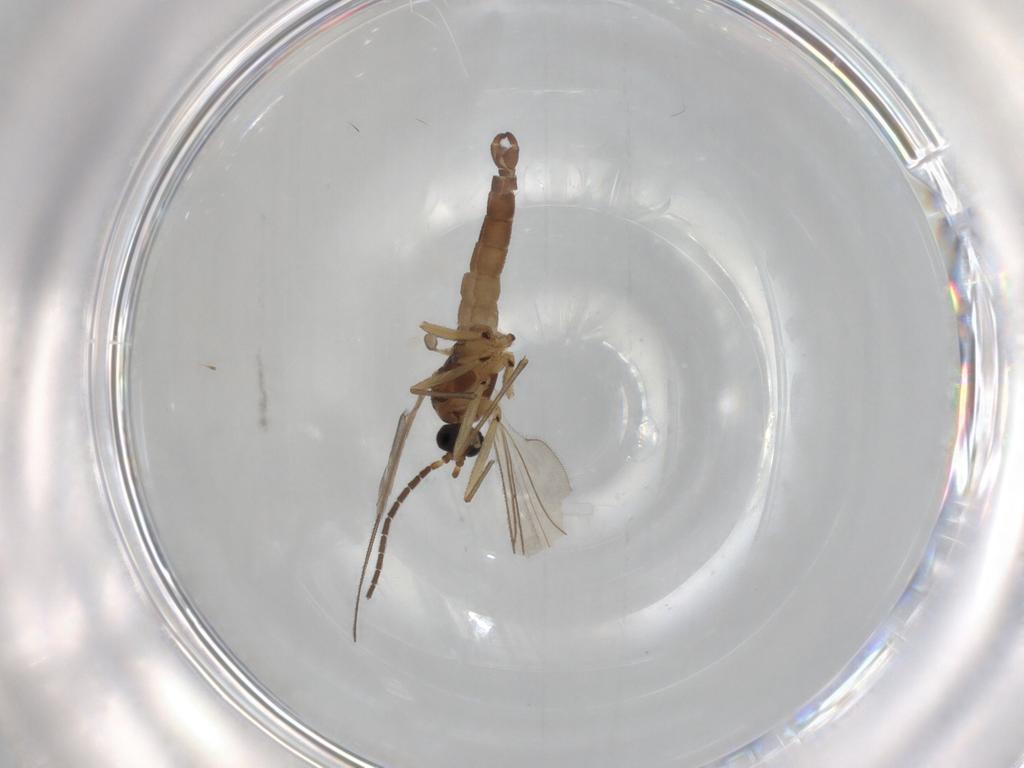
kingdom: Animalia
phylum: Arthropoda
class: Insecta
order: Diptera
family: Sciaridae
